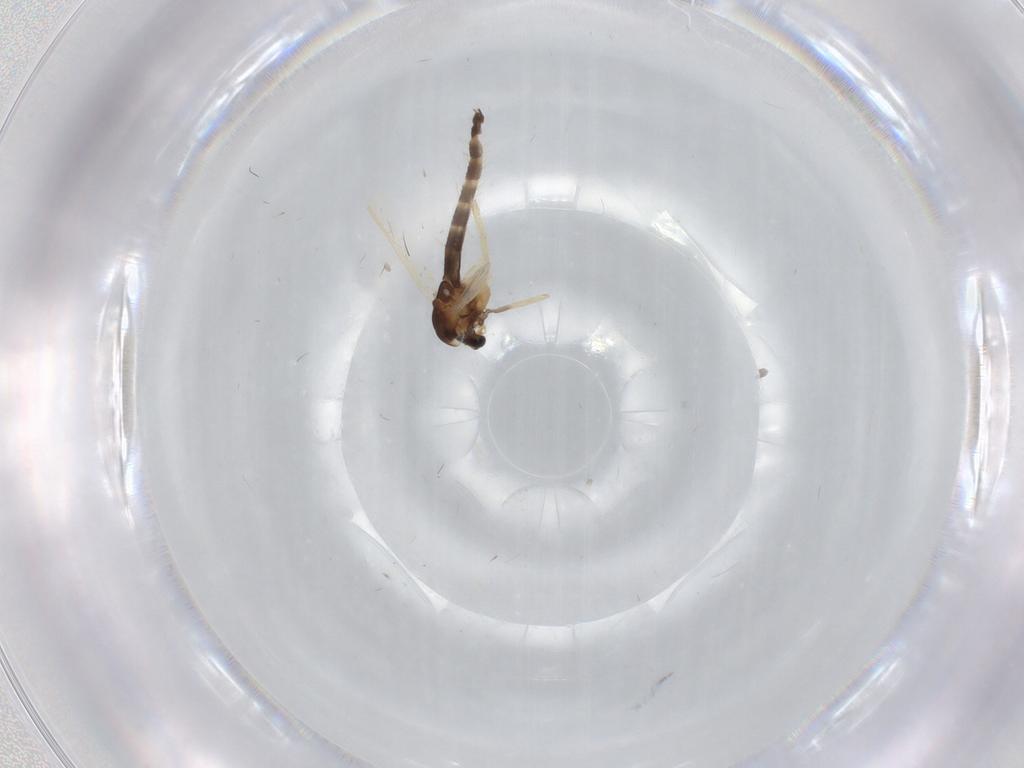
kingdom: Animalia
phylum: Arthropoda
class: Insecta
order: Diptera
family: Chironomidae
